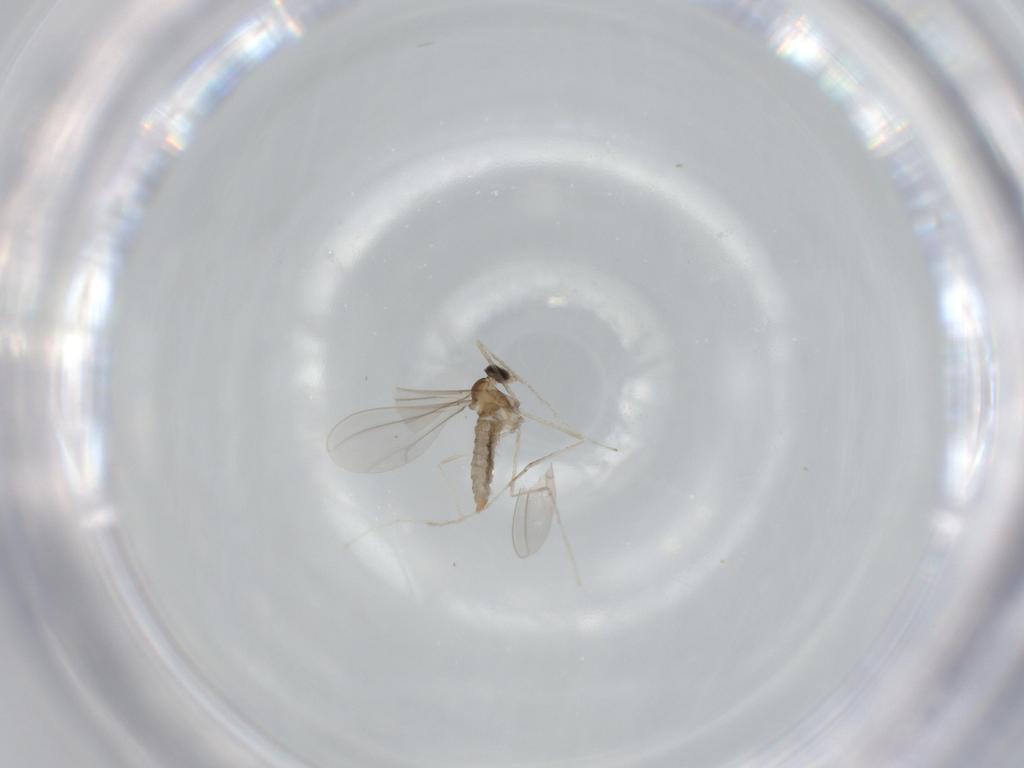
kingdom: Animalia
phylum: Arthropoda
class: Insecta
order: Diptera
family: Cecidomyiidae
